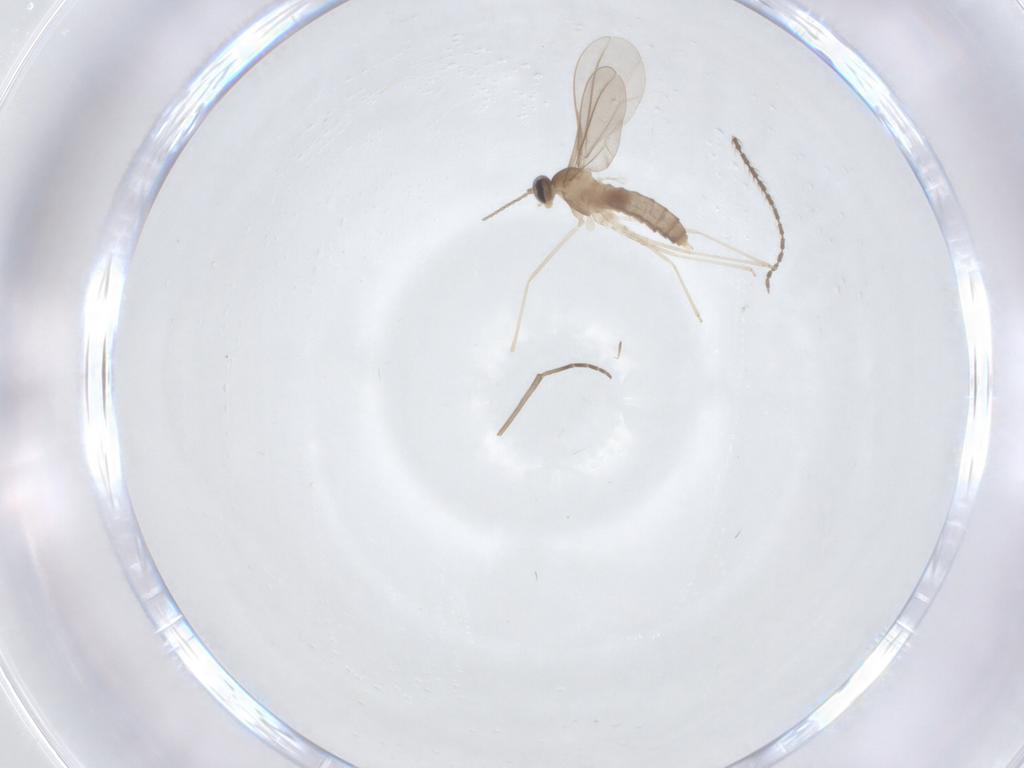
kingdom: Animalia
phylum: Arthropoda
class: Insecta
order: Diptera
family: Sciaridae
